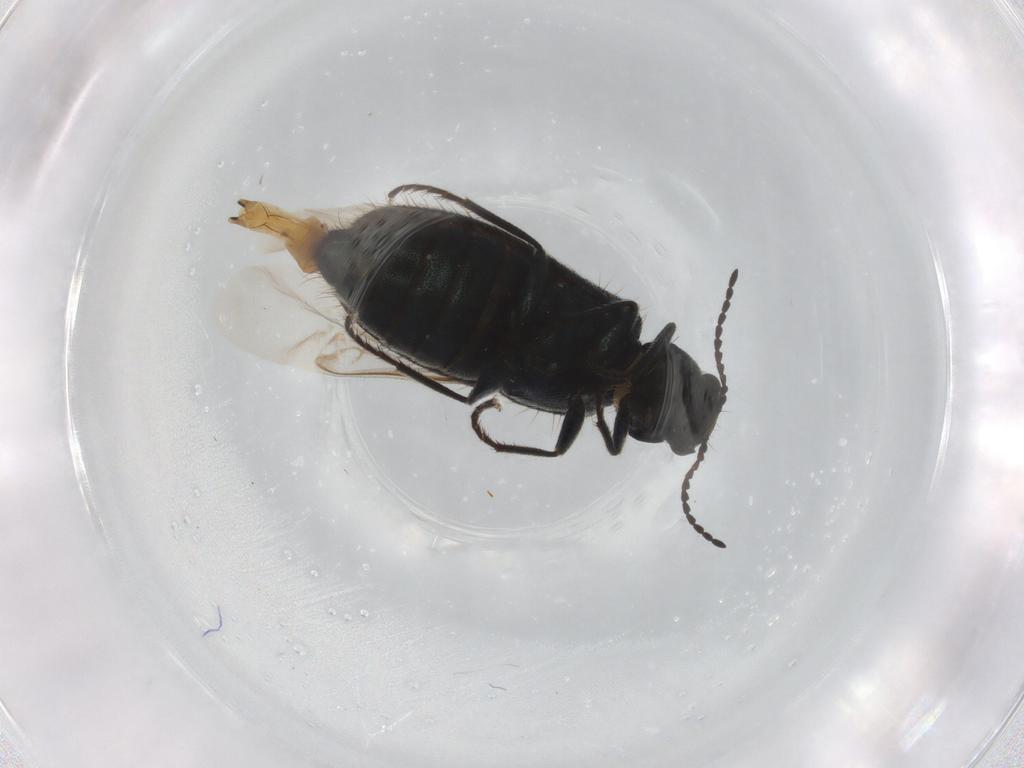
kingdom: Animalia
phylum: Arthropoda
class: Insecta
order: Coleoptera
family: Melyridae
